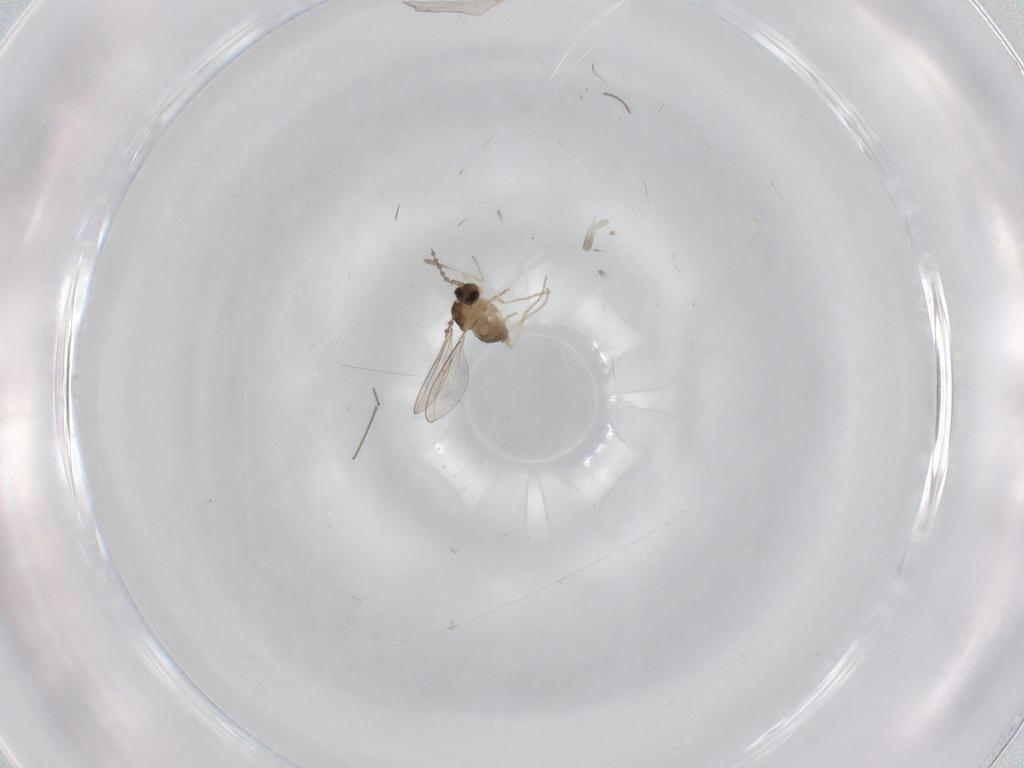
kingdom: Animalia
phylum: Arthropoda
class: Insecta
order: Diptera
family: Cecidomyiidae
